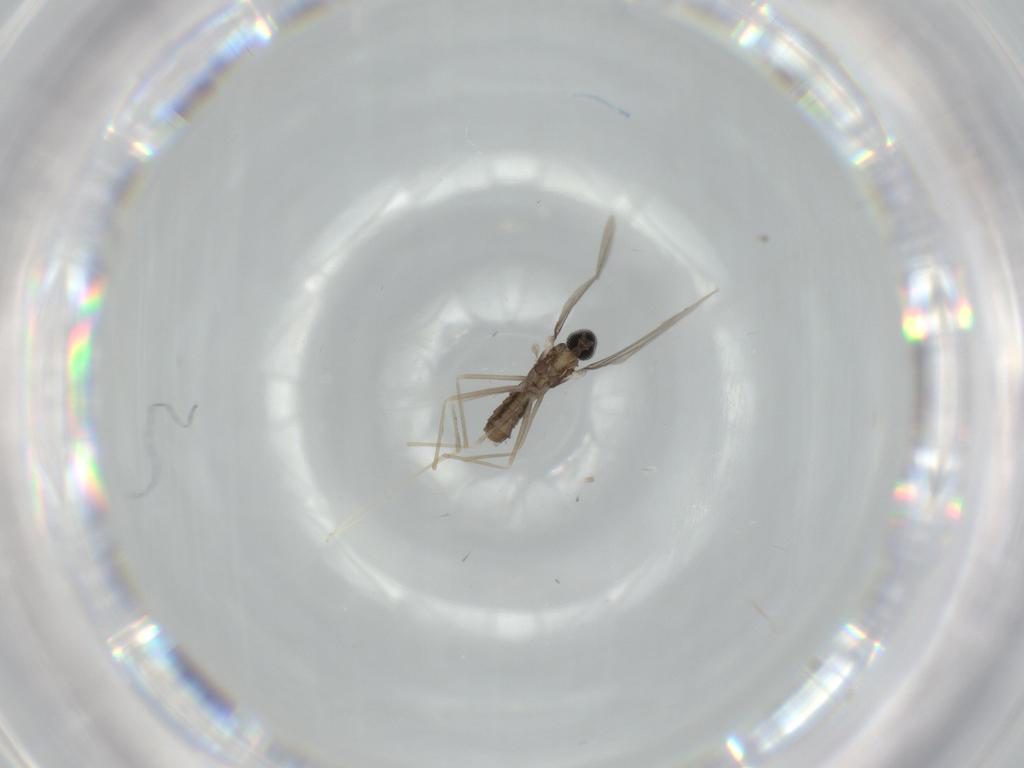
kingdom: Animalia
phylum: Arthropoda
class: Insecta
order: Diptera
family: Cecidomyiidae
